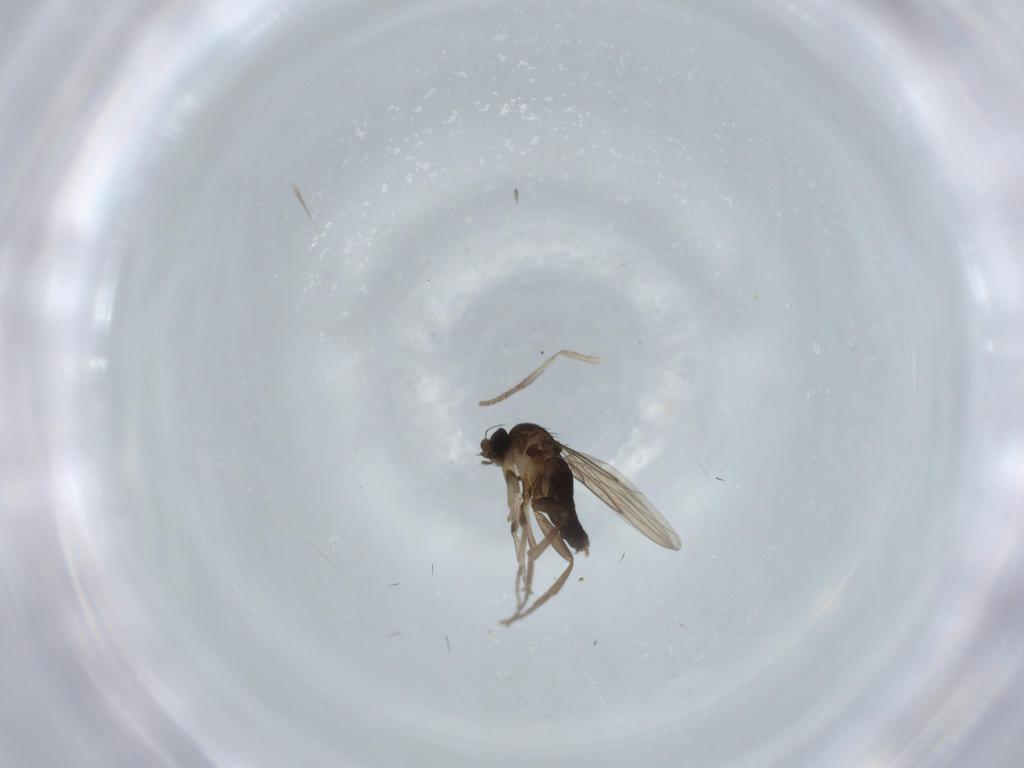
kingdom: Animalia
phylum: Arthropoda
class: Insecta
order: Diptera
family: Phoridae
